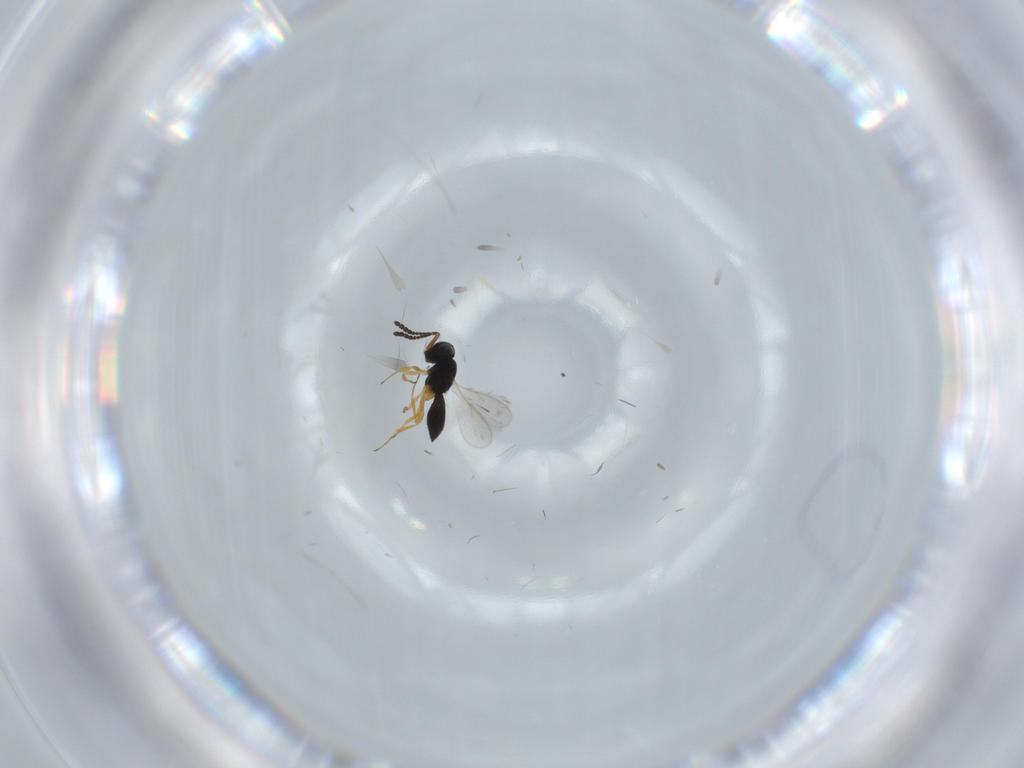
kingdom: Animalia
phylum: Arthropoda
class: Insecta
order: Hymenoptera
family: Scelionidae
